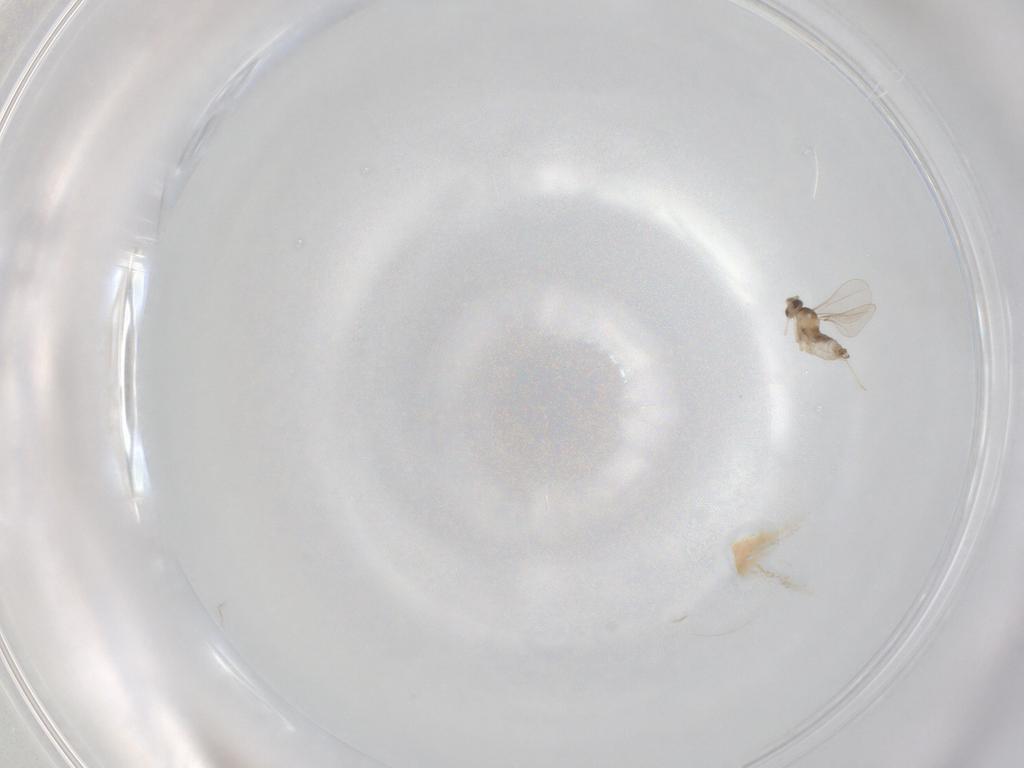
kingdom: Animalia
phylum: Arthropoda
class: Insecta
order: Diptera
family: Cecidomyiidae
